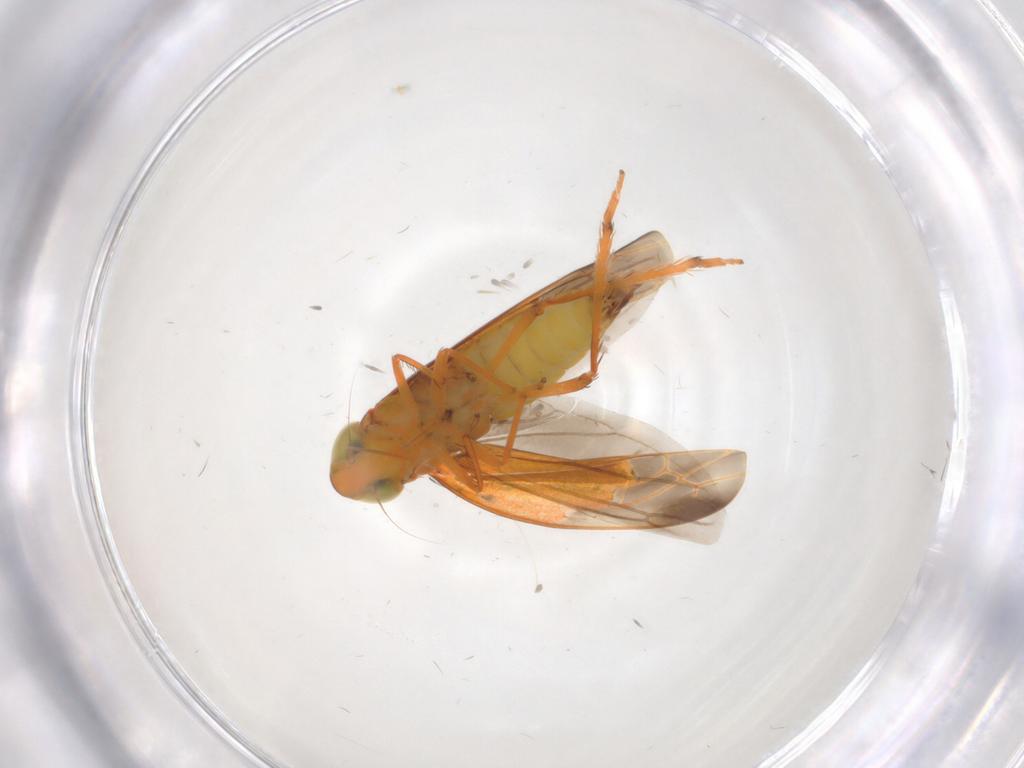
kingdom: Animalia
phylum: Arthropoda
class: Insecta
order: Hemiptera
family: Cicadellidae
